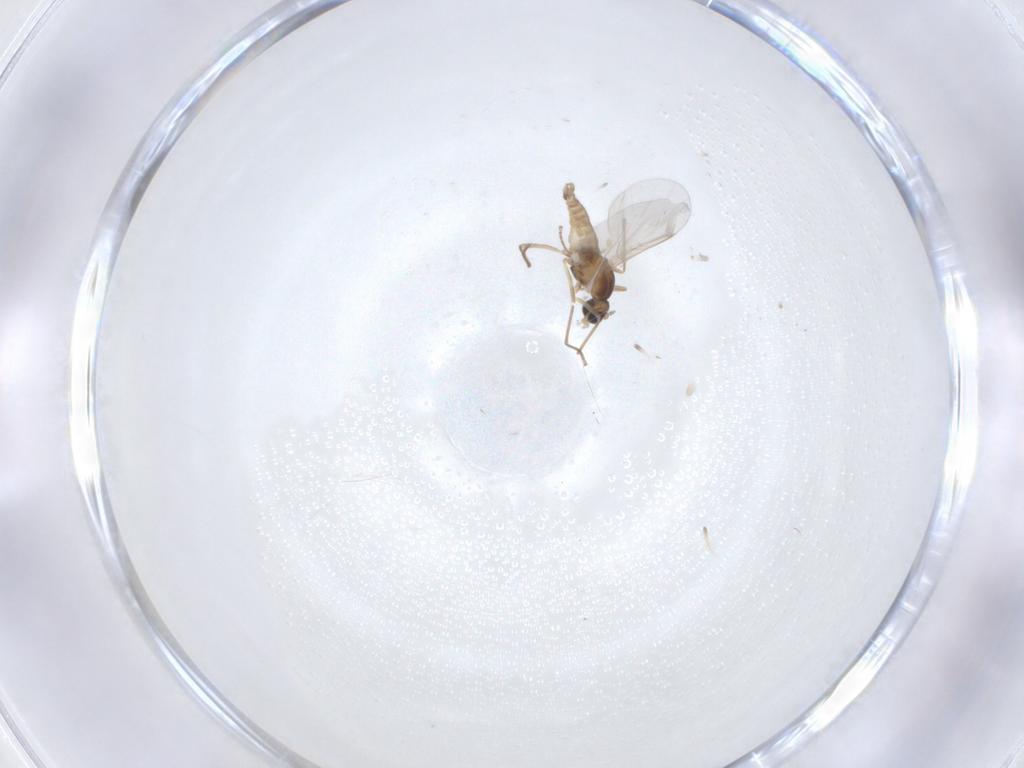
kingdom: Animalia
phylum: Arthropoda
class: Insecta
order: Diptera
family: Cecidomyiidae
